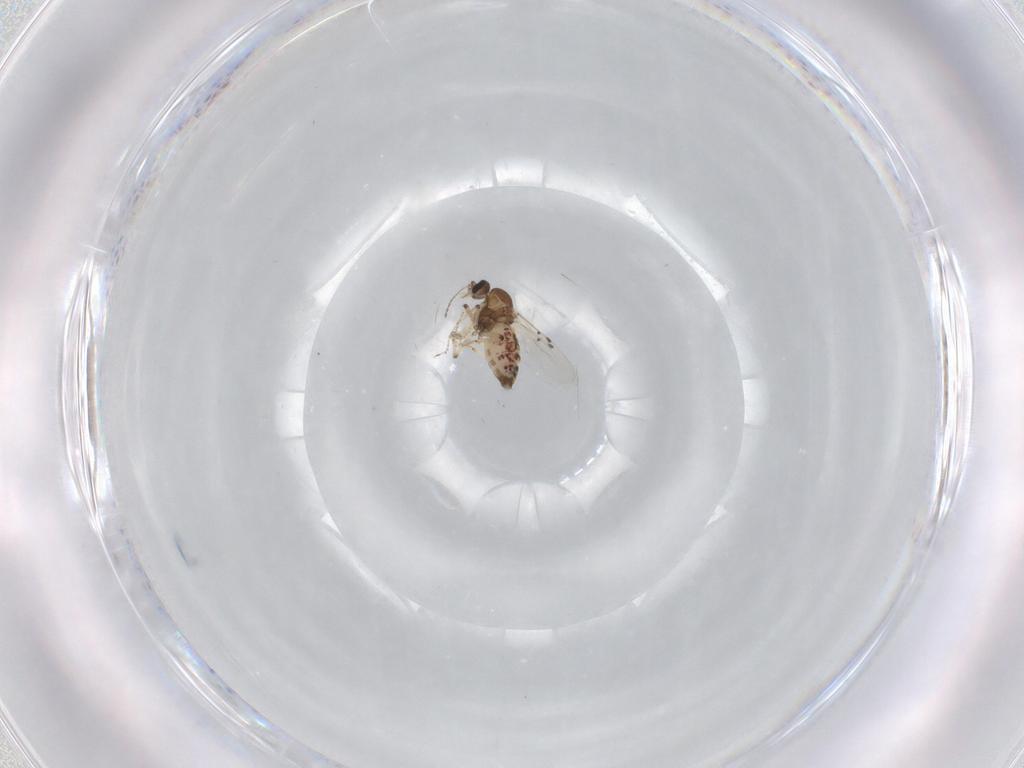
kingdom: Animalia
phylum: Arthropoda
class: Insecta
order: Diptera
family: Ceratopogonidae
